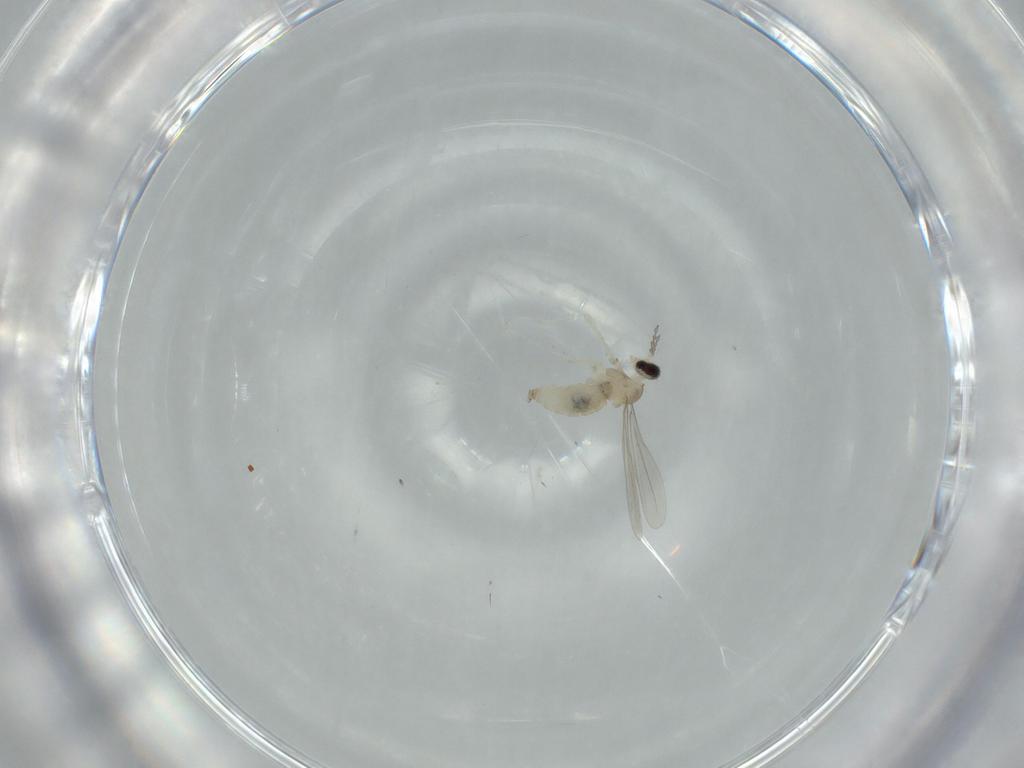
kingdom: Animalia
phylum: Arthropoda
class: Insecta
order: Diptera
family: Cecidomyiidae
